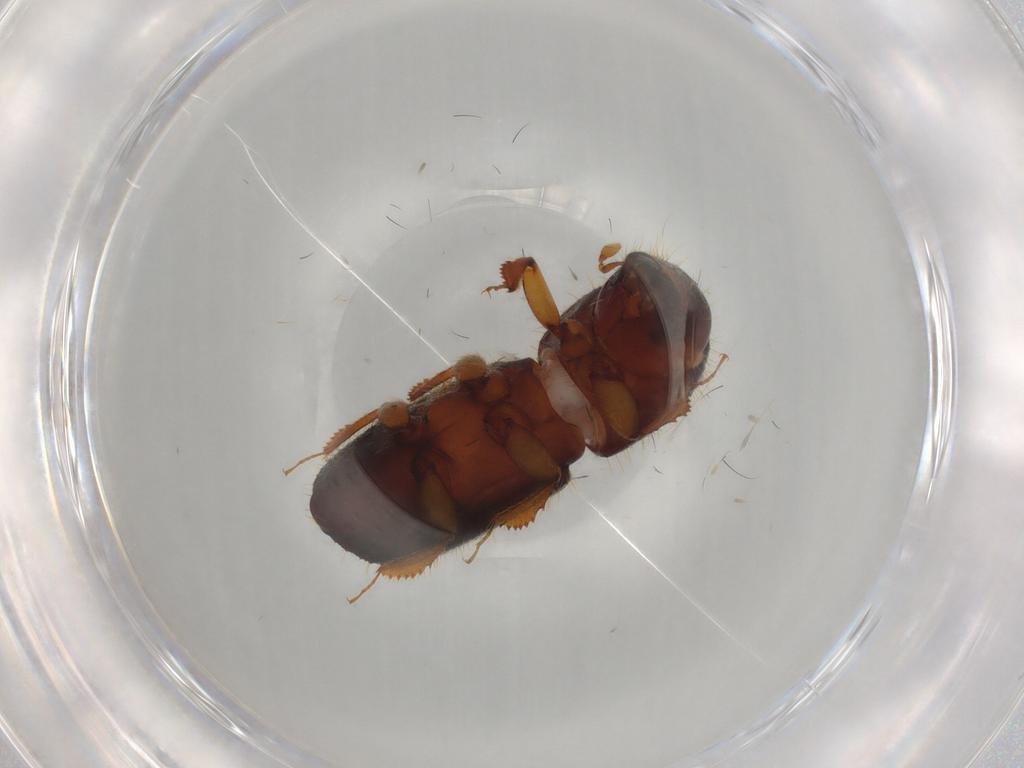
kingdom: Animalia
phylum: Arthropoda
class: Insecta
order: Coleoptera
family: Curculionidae
